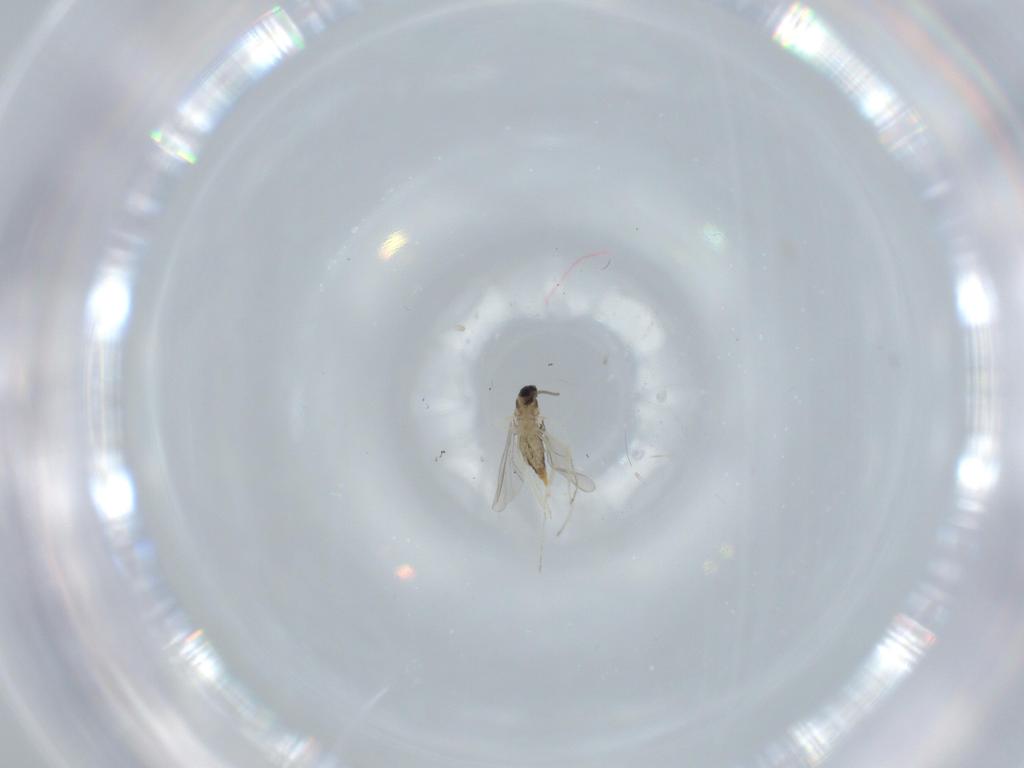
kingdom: Animalia
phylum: Arthropoda
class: Insecta
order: Diptera
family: Cecidomyiidae
